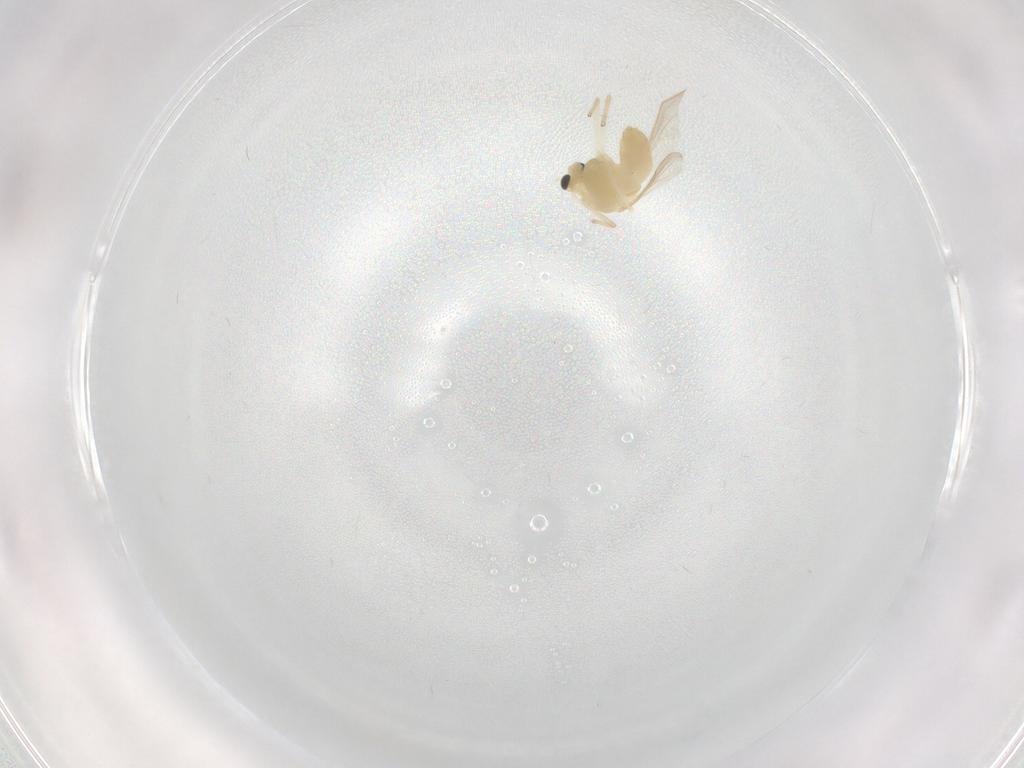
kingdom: Animalia
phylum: Arthropoda
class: Insecta
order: Diptera
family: Chironomidae
